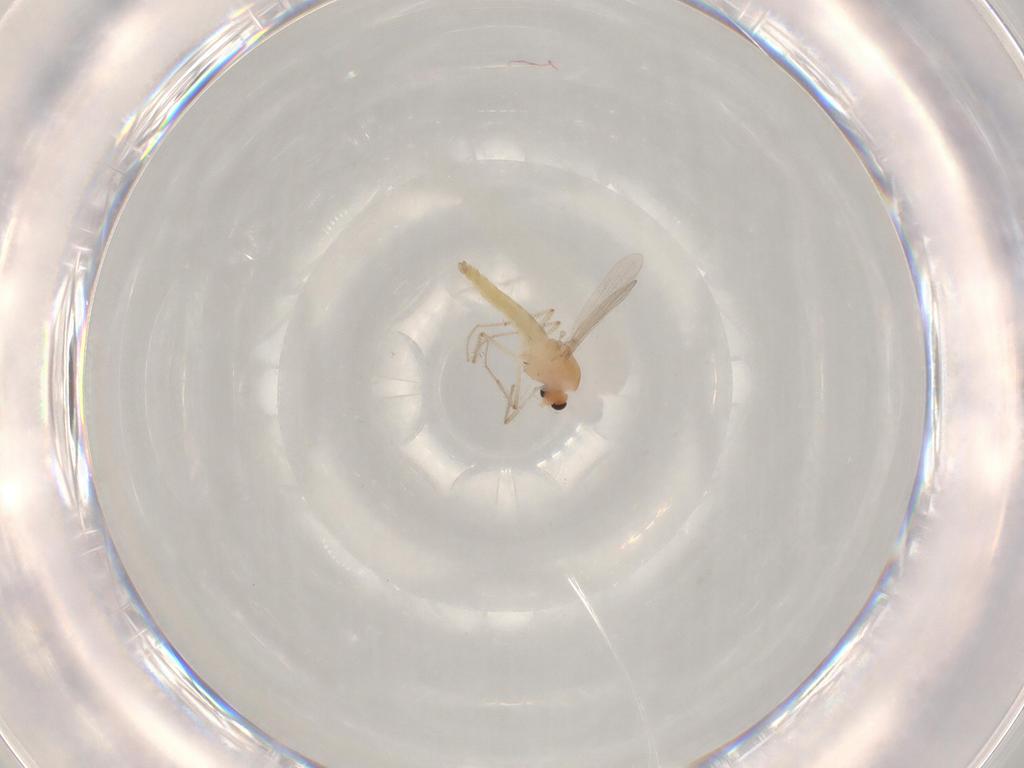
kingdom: Animalia
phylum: Arthropoda
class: Insecta
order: Diptera
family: Chironomidae
